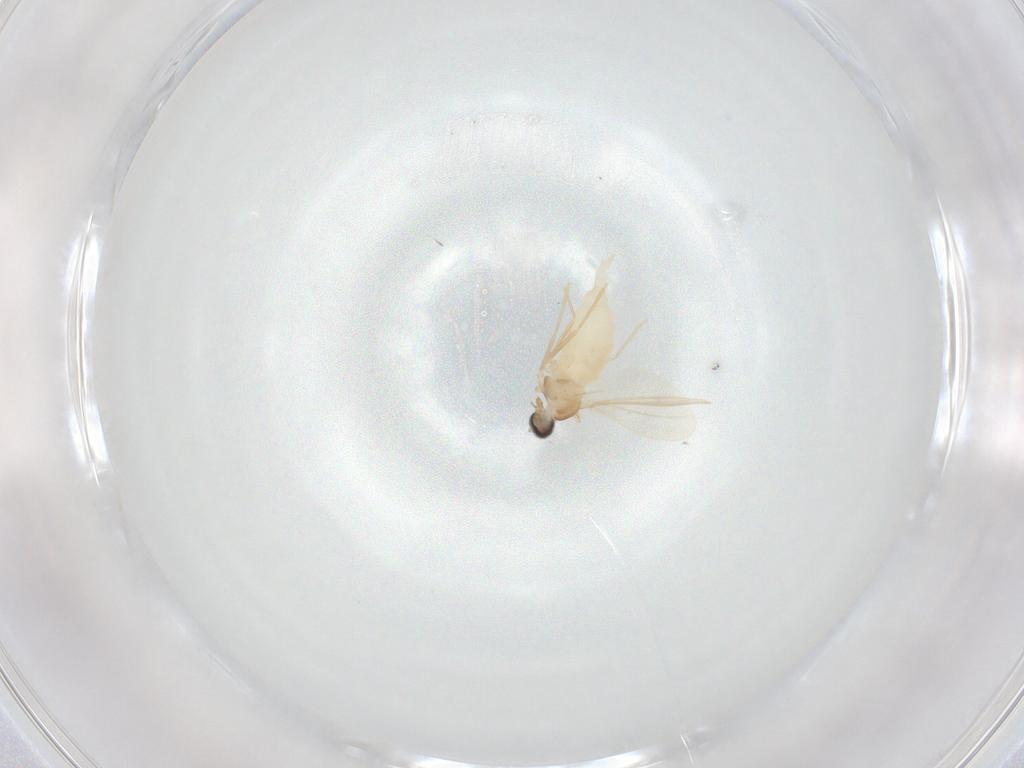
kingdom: Animalia
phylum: Arthropoda
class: Insecta
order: Diptera
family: Cecidomyiidae
